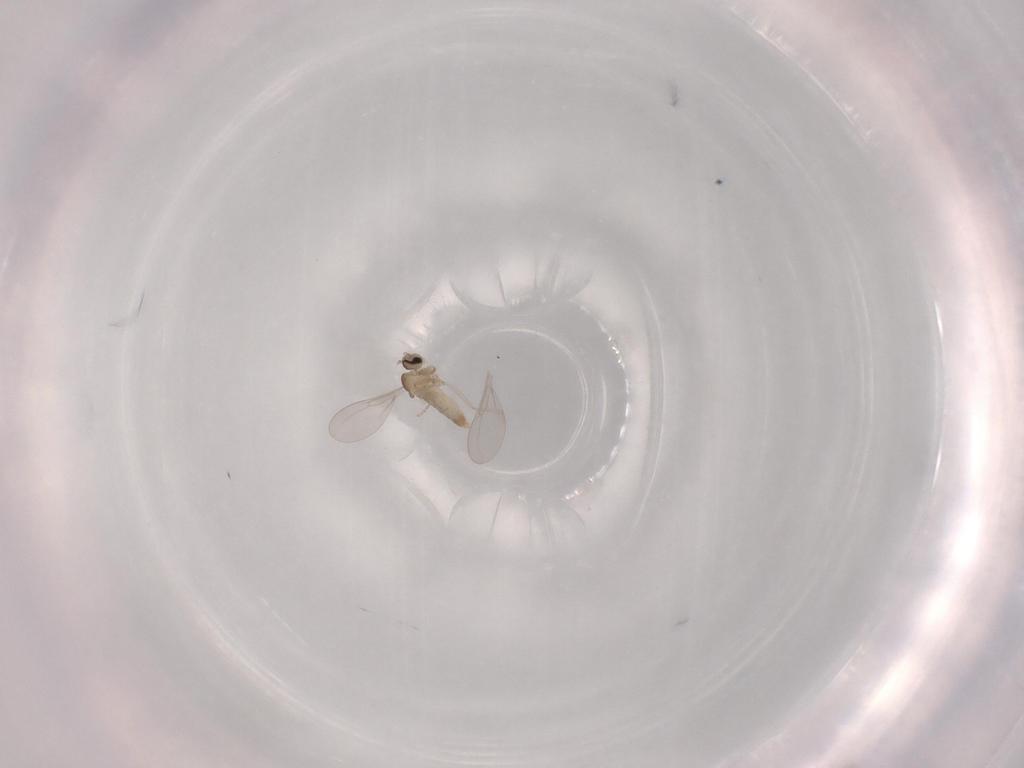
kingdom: Animalia
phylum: Arthropoda
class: Insecta
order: Diptera
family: Cecidomyiidae
